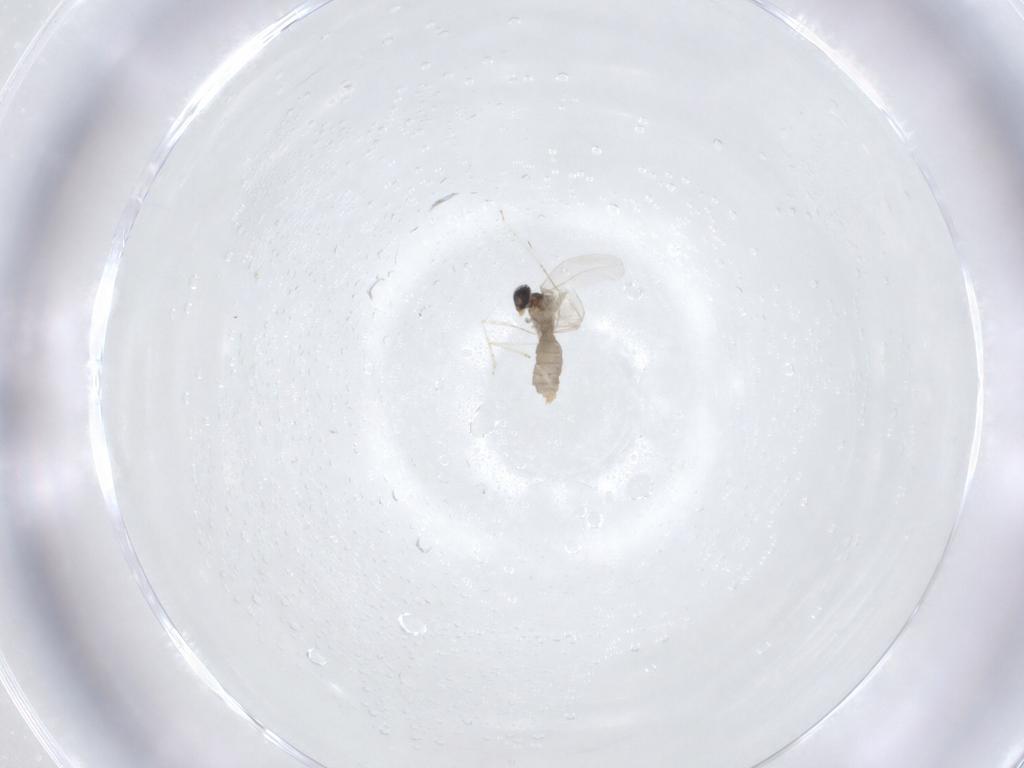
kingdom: Animalia
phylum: Arthropoda
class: Insecta
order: Diptera
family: Cecidomyiidae
